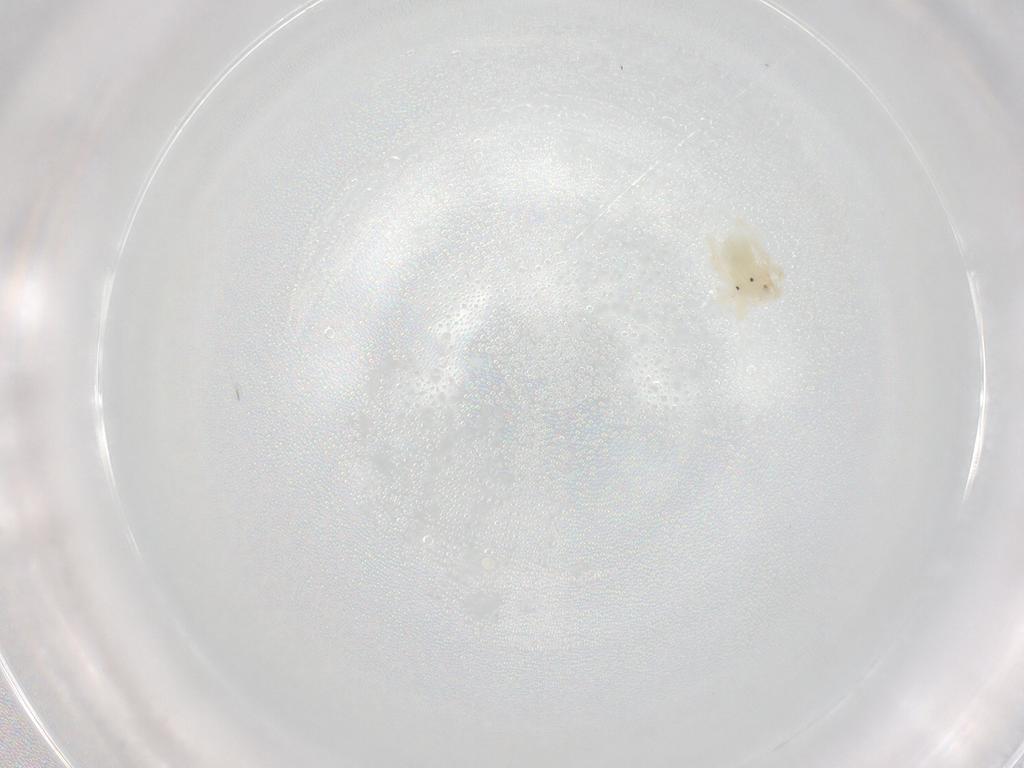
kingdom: Animalia
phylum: Arthropoda
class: Arachnida
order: Trombidiformes
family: Anystidae
